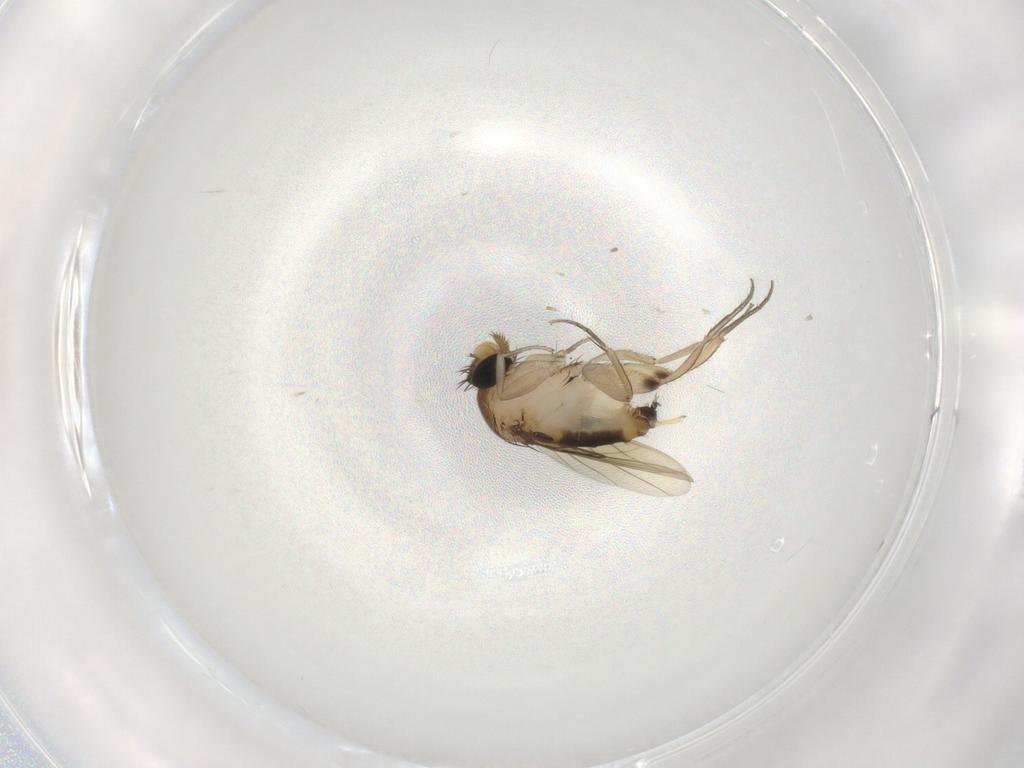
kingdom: Animalia
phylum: Arthropoda
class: Insecta
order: Diptera
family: Phoridae
